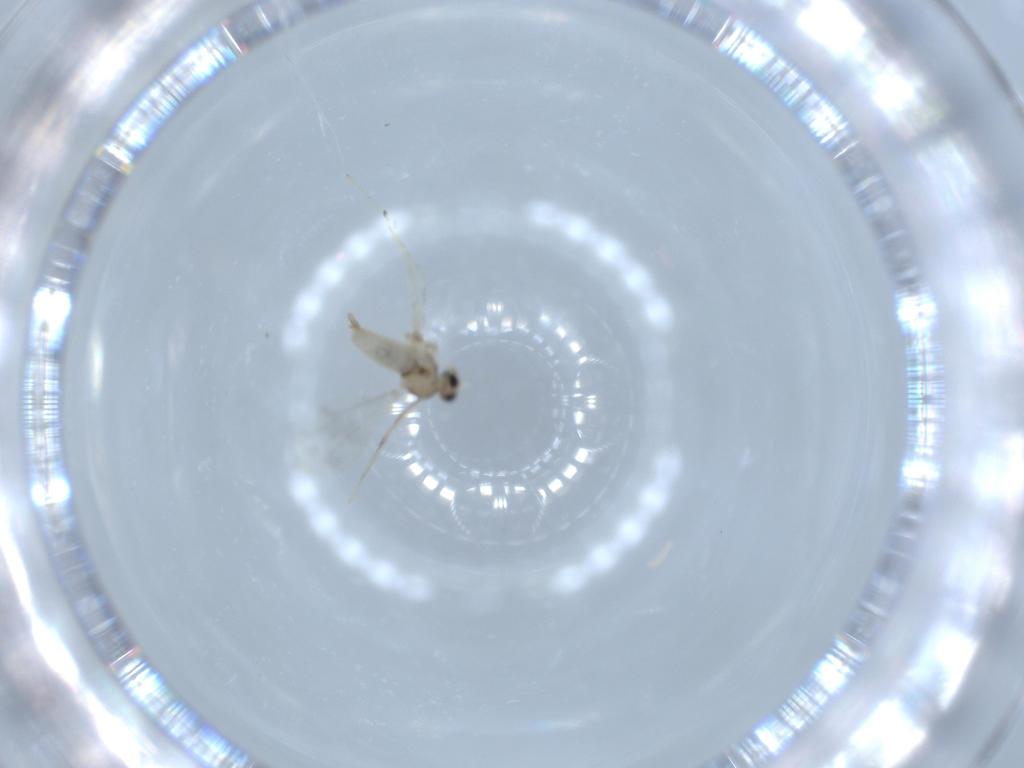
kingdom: Animalia
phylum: Arthropoda
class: Insecta
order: Diptera
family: Cecidomyiidae
